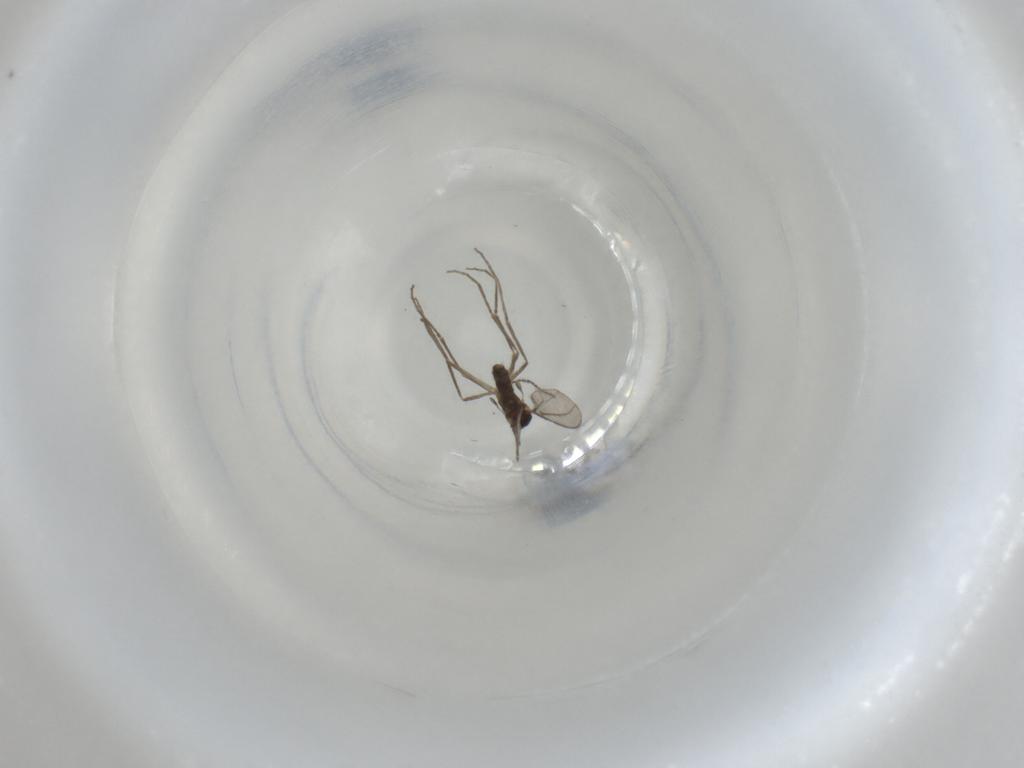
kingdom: Animalia
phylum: Arthropoda
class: Insecta
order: Diptera
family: Cecidomyiidae
